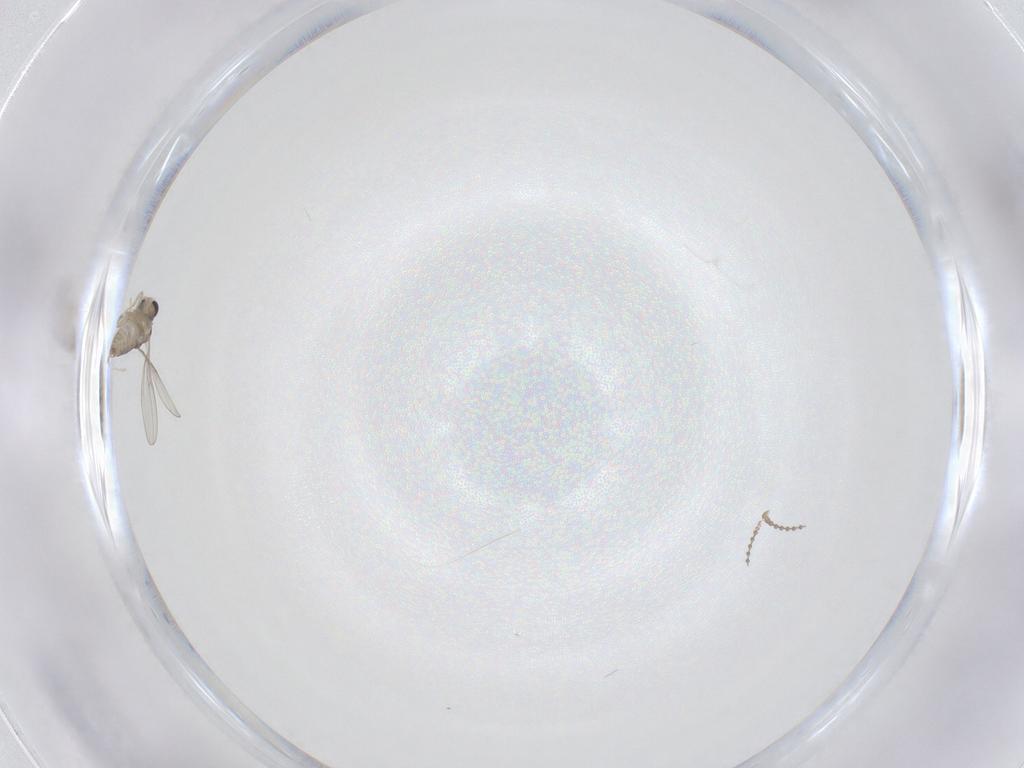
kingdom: Animalia
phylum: Arthropoda
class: Insecta
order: Diptera
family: Cecidomyiidae
